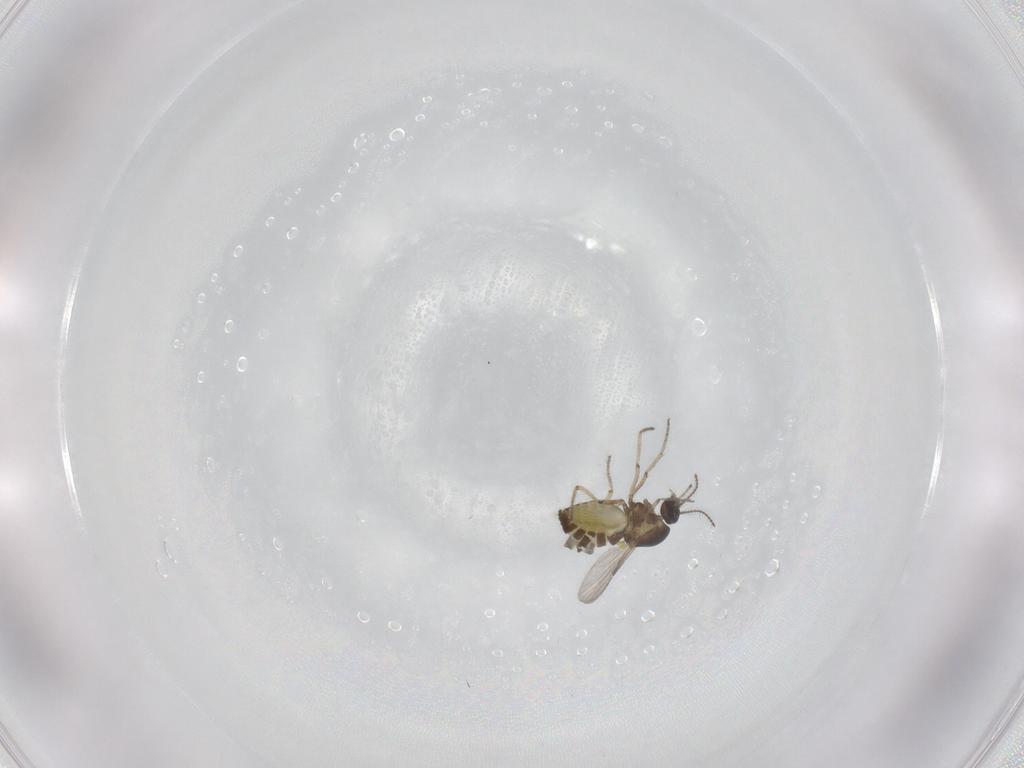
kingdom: Animalia
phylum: Arthropoda
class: Insecta
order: Diptera
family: Ceratopogonidae
